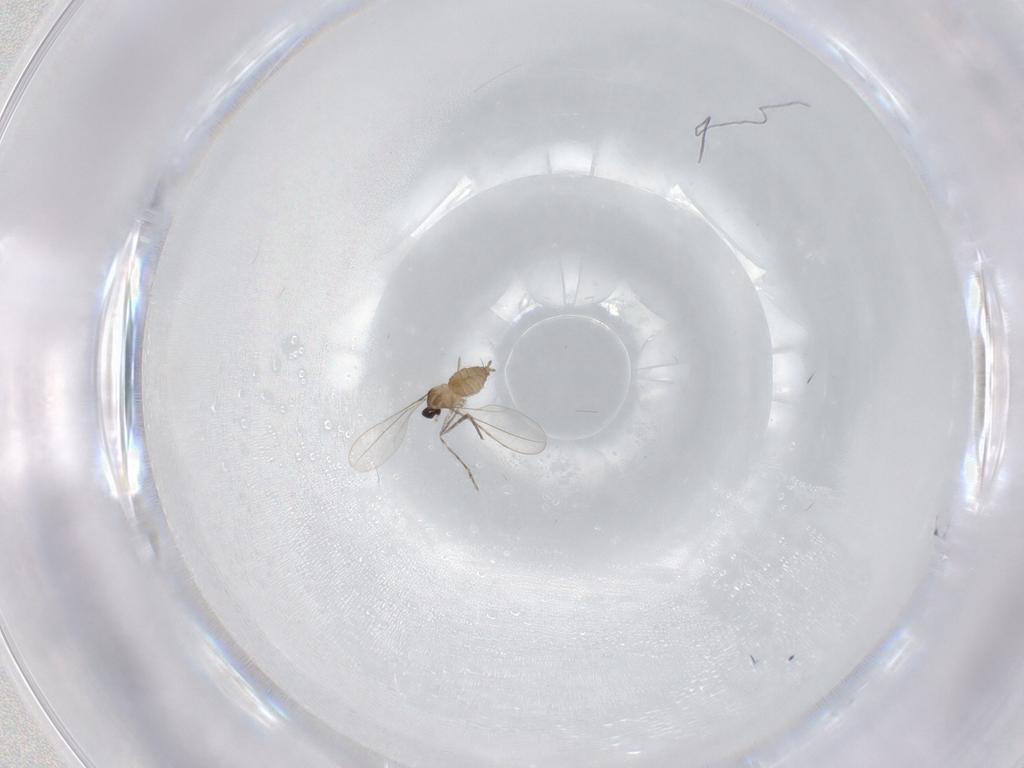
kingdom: Animalia
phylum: Arthropoda
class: Insecta
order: Diptera
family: Cecidomyiidae
